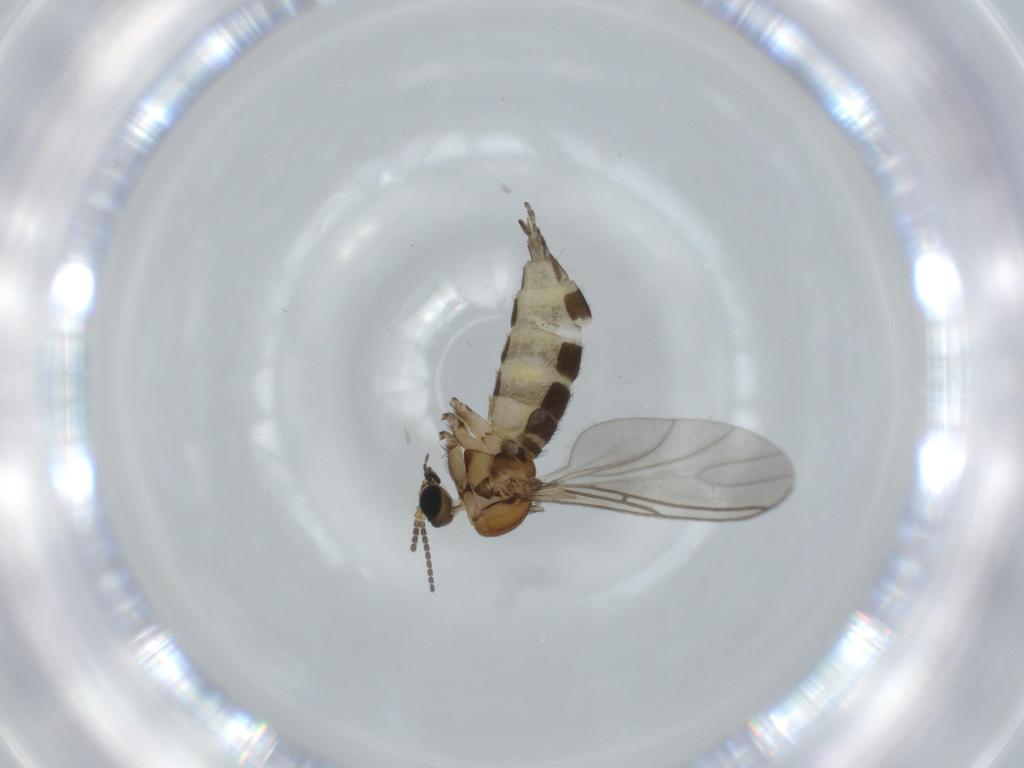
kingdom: Animalia
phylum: Arthropoda
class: Insecta
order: Diptera
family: Sciaridae
